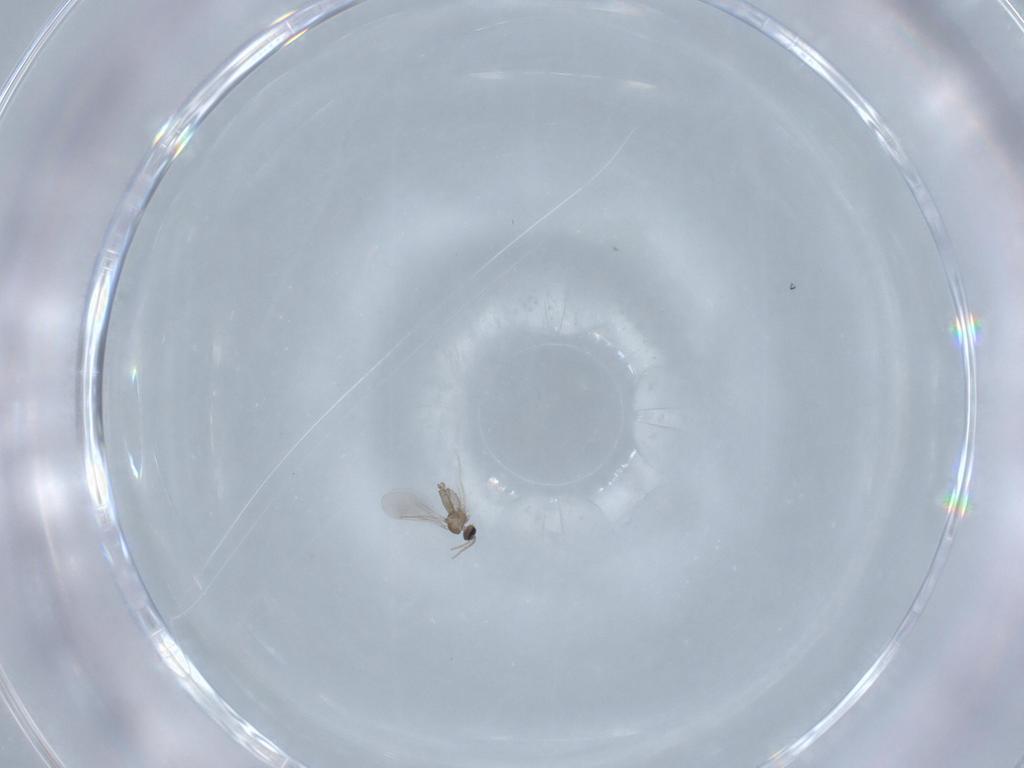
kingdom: Animalia
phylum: Arthropoda
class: Insecta
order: Diptera
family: Cecidomyiidae
